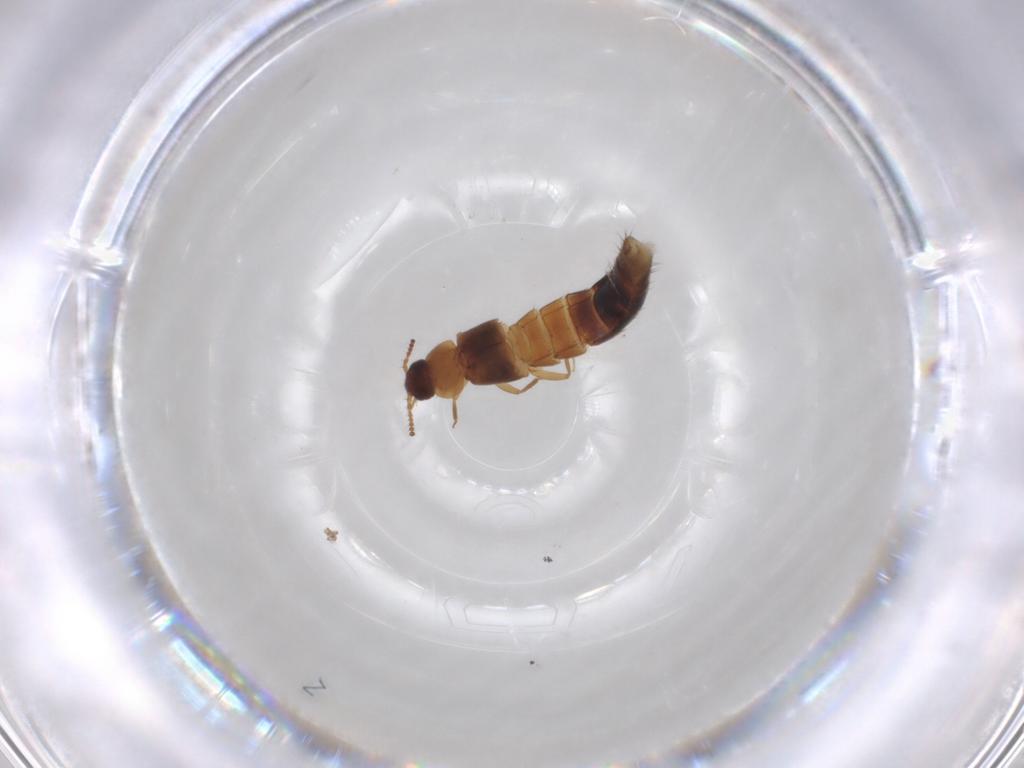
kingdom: Animalia
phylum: Arthropoda
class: Insecta
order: Coleoptera
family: Staphylinidae
